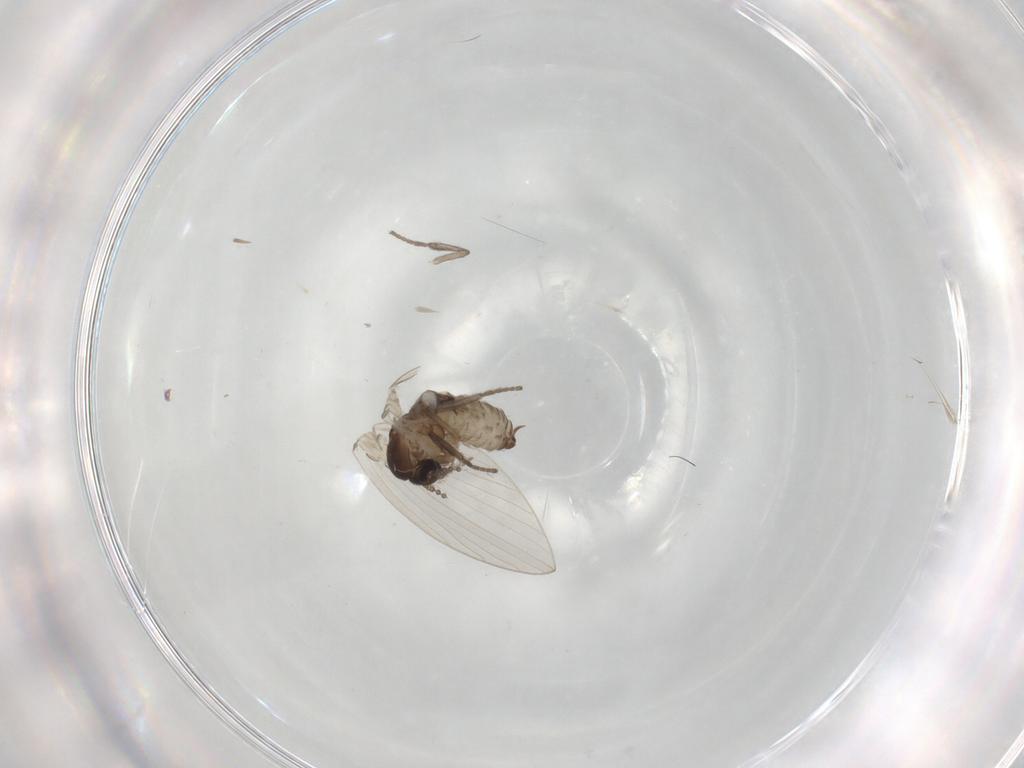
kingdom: Animalia
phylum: Arthropoda
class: Insecta
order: Diptera
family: Psychodidae
